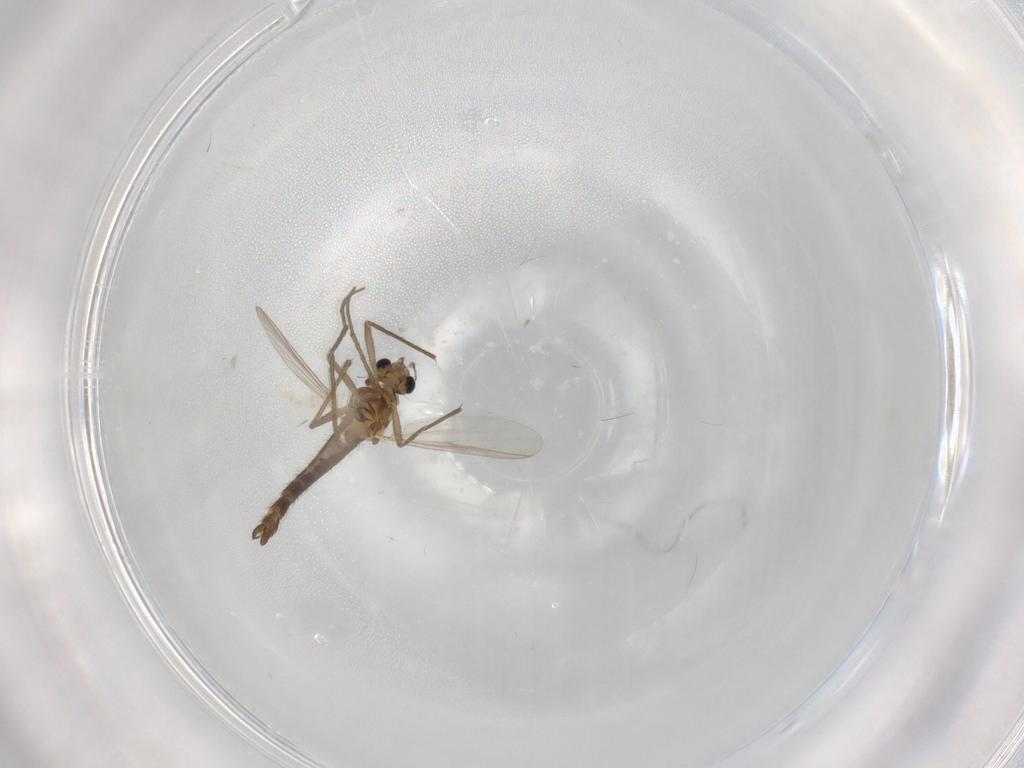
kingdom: Animalia
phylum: Arthropoda
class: Insecta
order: Diptera
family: Chironomidae
